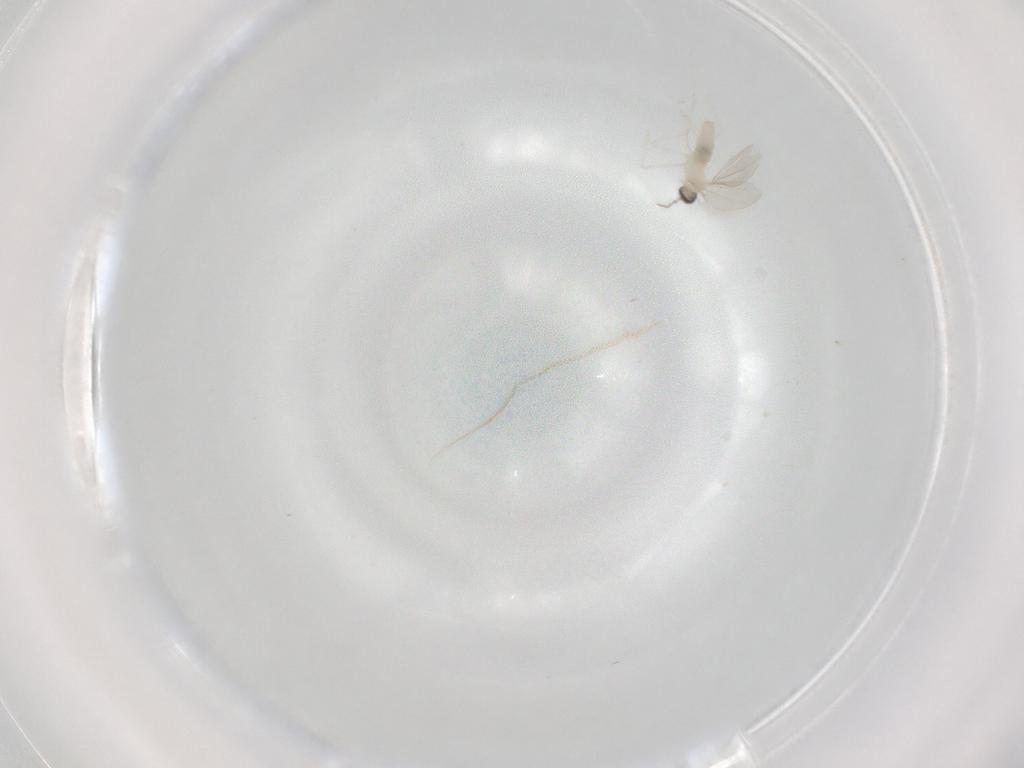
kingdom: Animalia
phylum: Arthropoda
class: Insecta
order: Diptera
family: Cecidomyiidae
